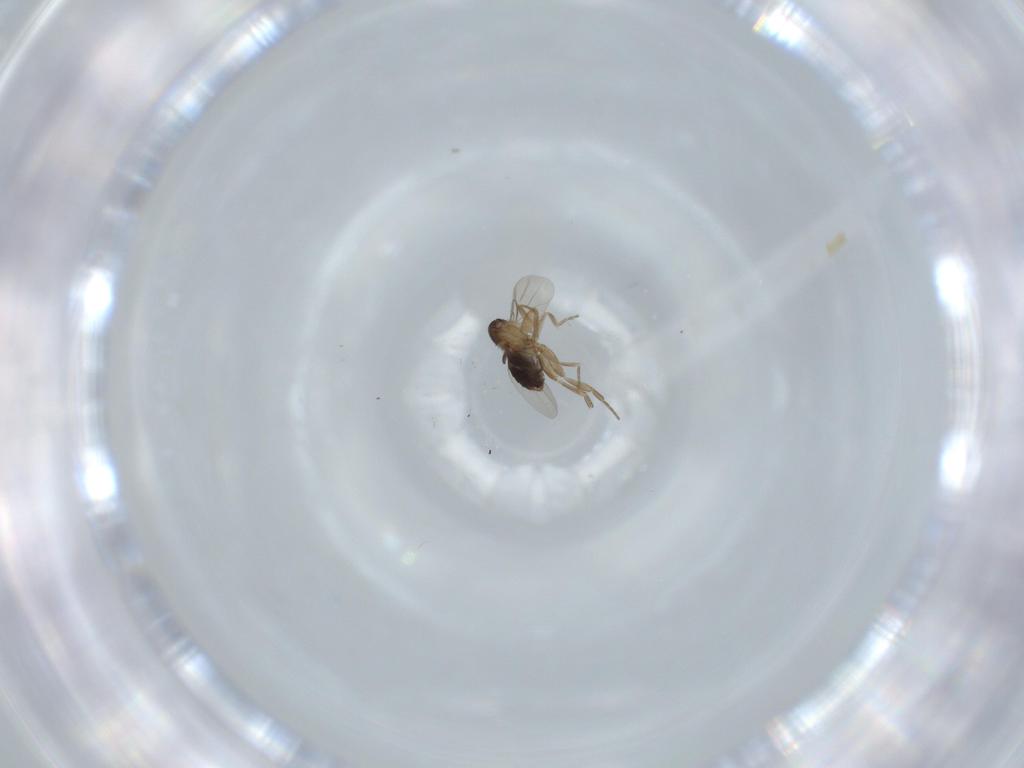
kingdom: Animalia
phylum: Arthropoda
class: Insecta
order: Diptera
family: Phoridae
